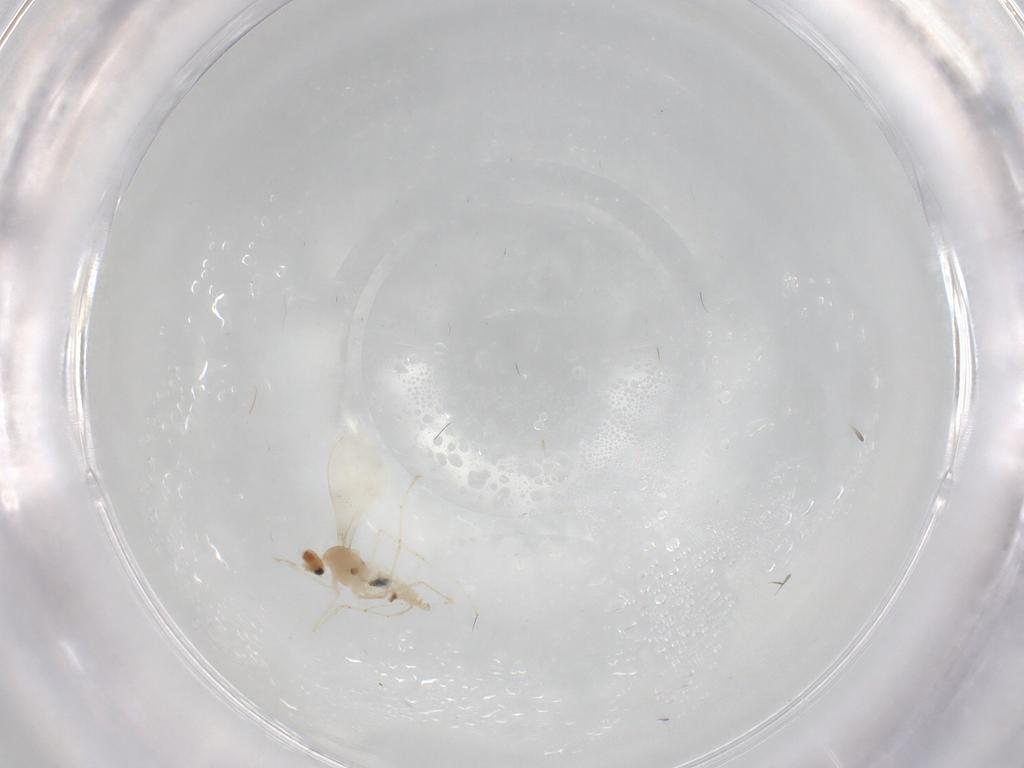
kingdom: Animalia
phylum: Arthropoda
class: Insecta
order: Diptera
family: Cecidomyiidae
